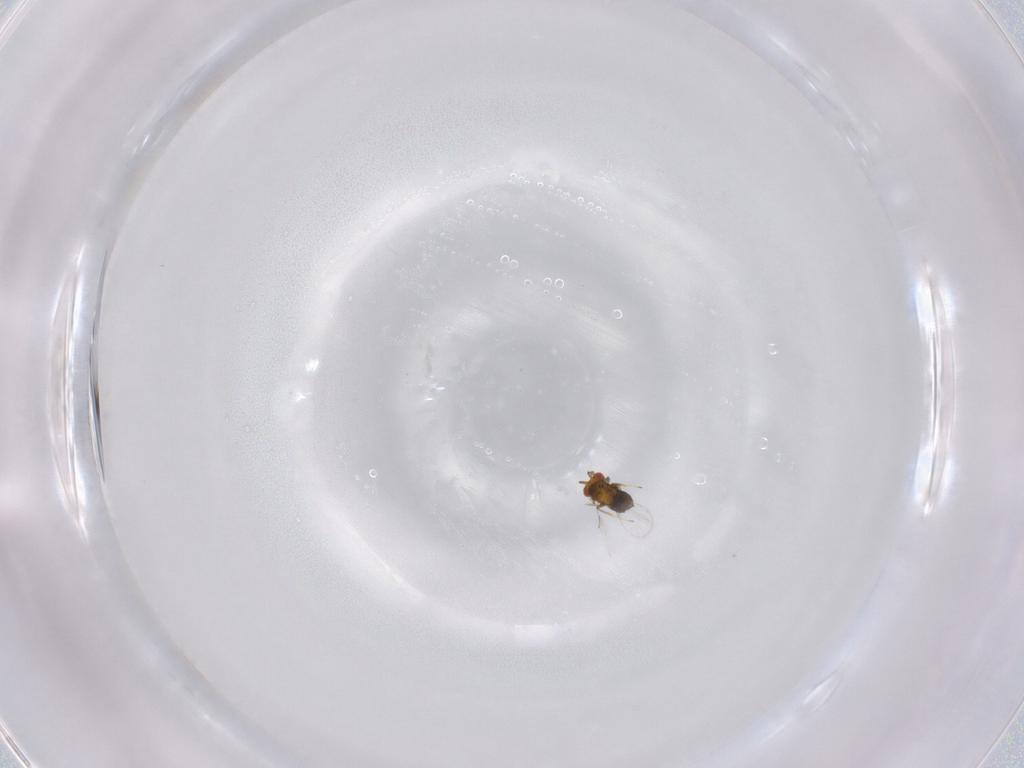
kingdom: Animalia
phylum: Arthropoda
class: Insecta
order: Hymenoptera
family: Trichogrammatidae
